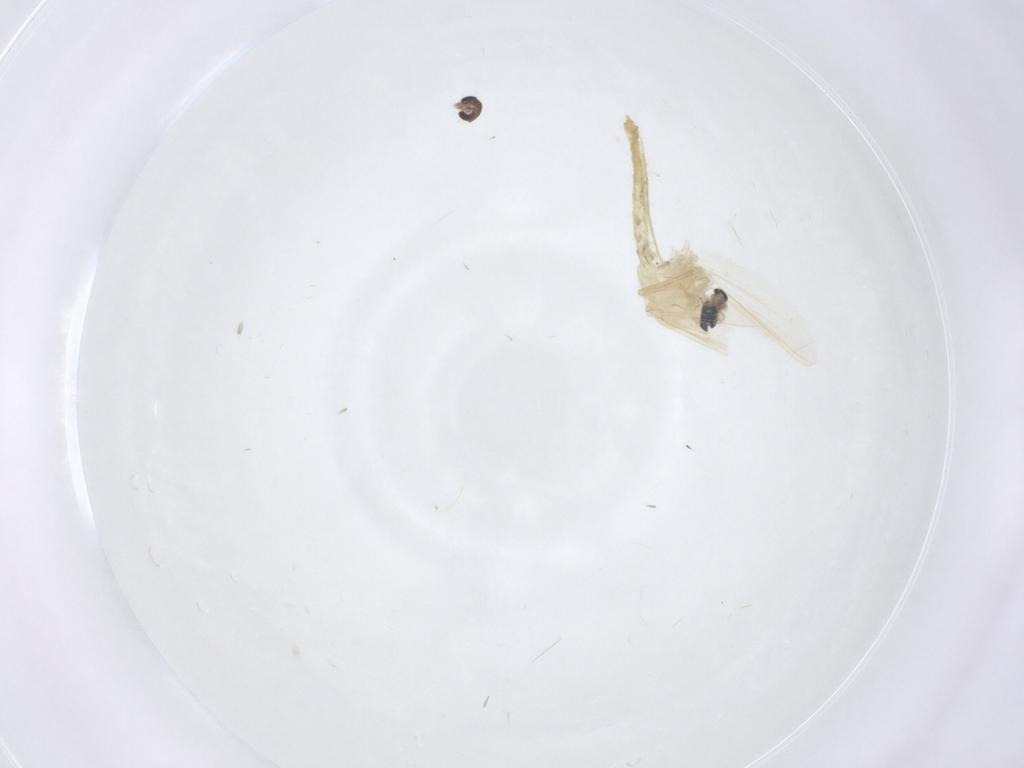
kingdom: Animalia
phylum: Arthropoda
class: Insecta
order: Diptera
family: Chironomidae
